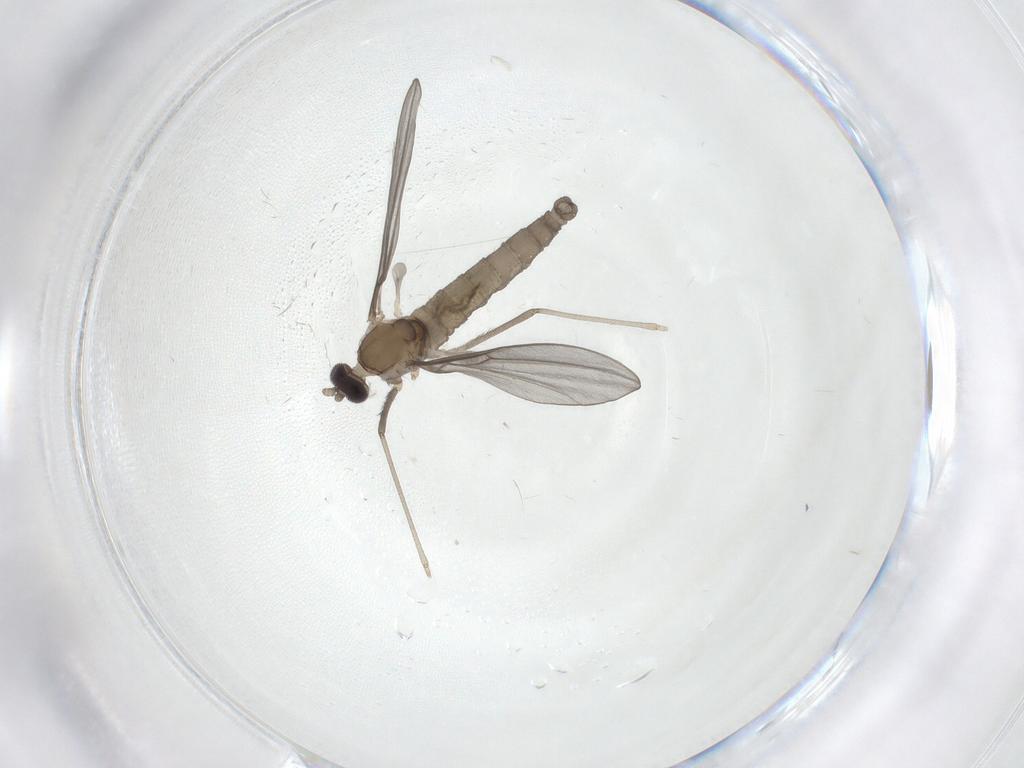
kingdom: Animalia
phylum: Arthropoda
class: Insecta
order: Diptera
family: Cecidomyiidae
